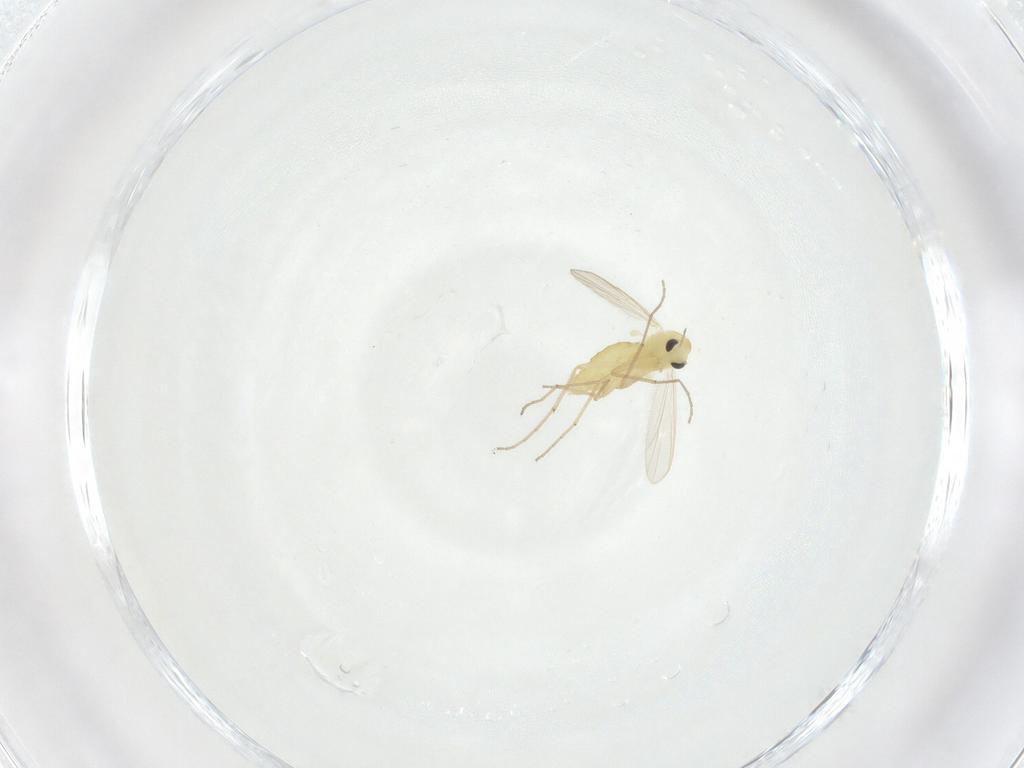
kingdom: Animalia
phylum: Arthropoda
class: Insecta
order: Diptera
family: Chironomidae
